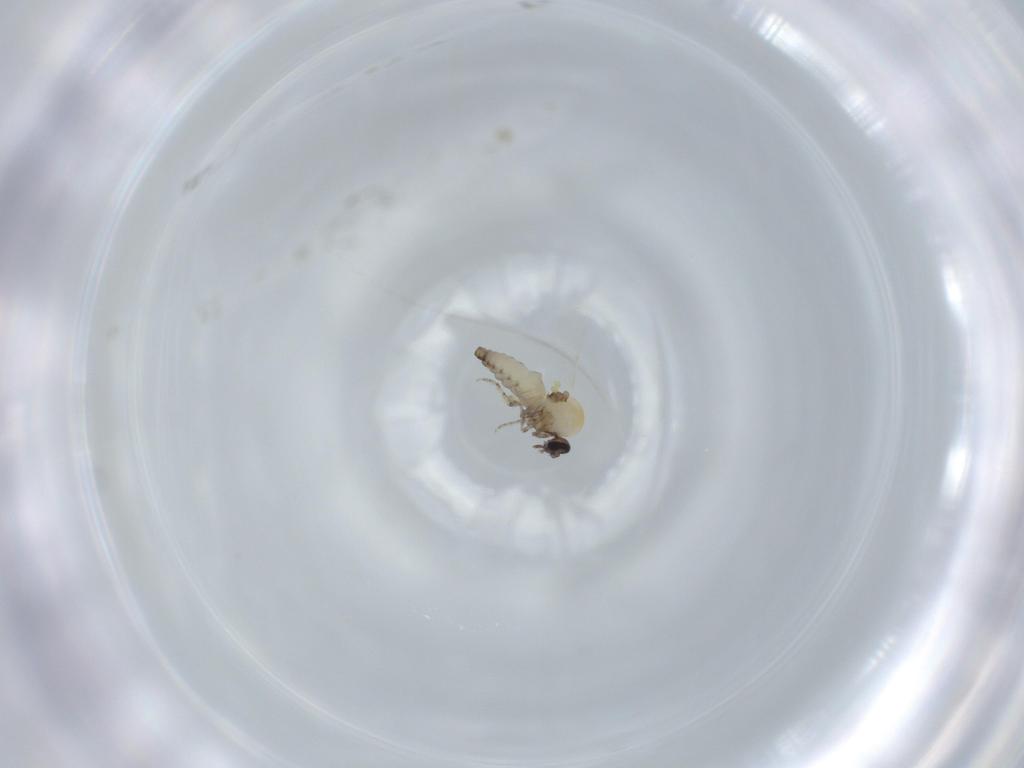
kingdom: Animalia
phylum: Arthropoda
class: Insecta
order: Diptera
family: Ceratopogonidae
